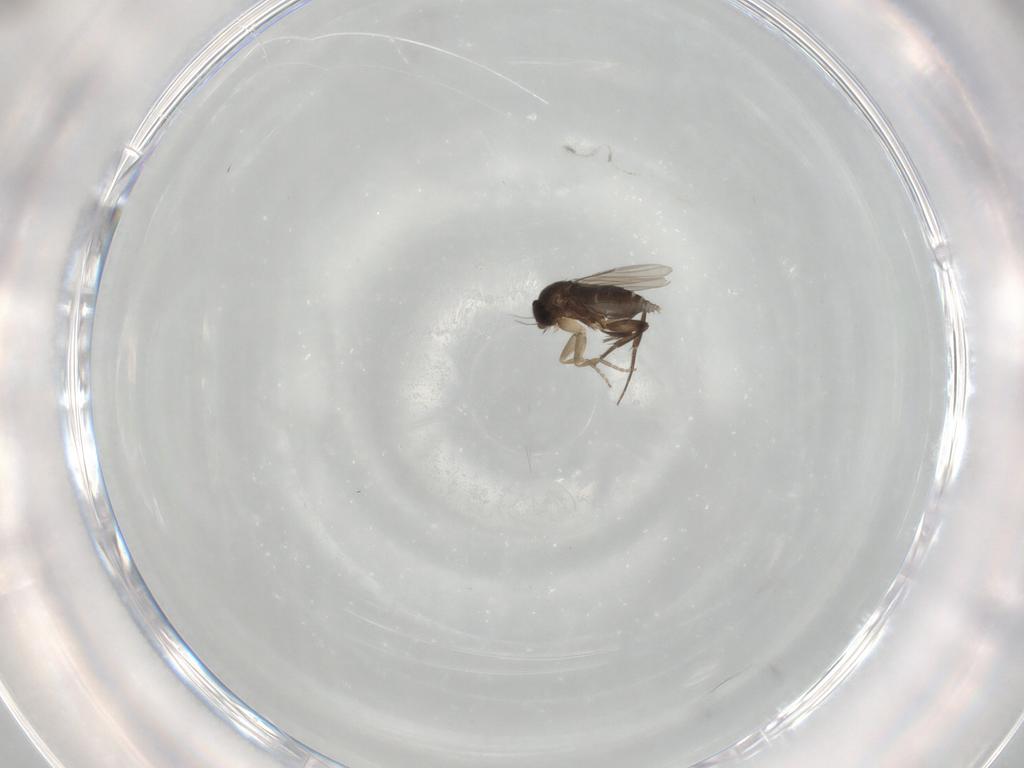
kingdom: Animalia
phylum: Arthropoda
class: Insecta
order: Diptera
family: Phoridae
